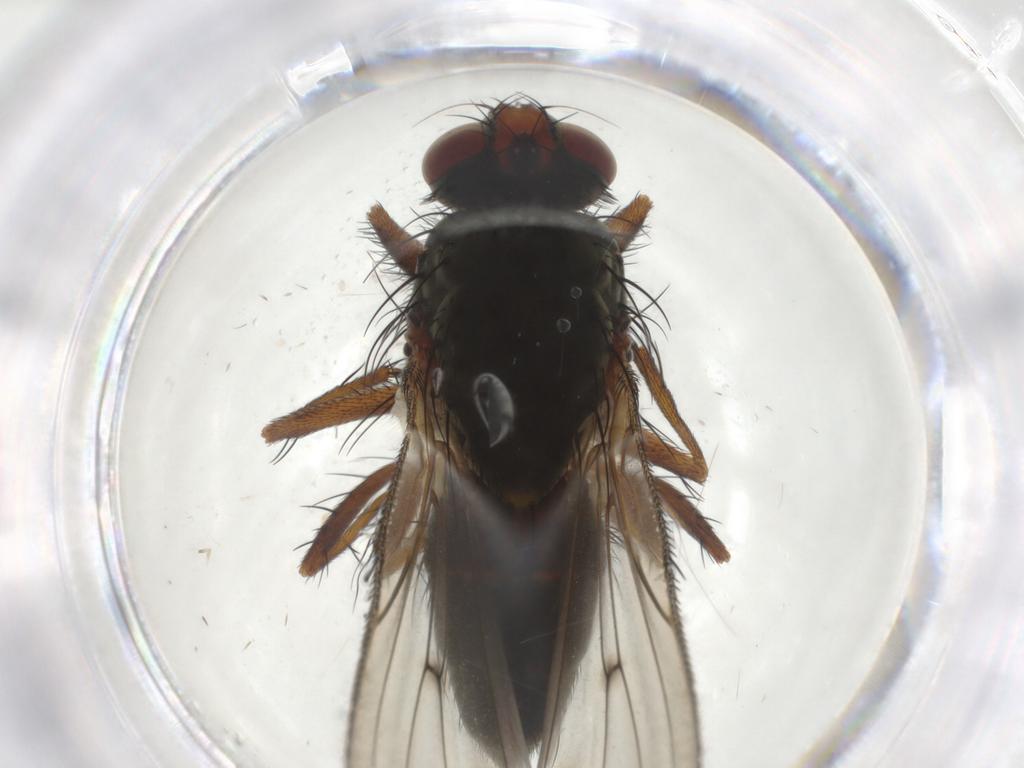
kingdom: Animalia
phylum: Arthropoda
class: Insecta
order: Diptera
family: Anthomyiidae
